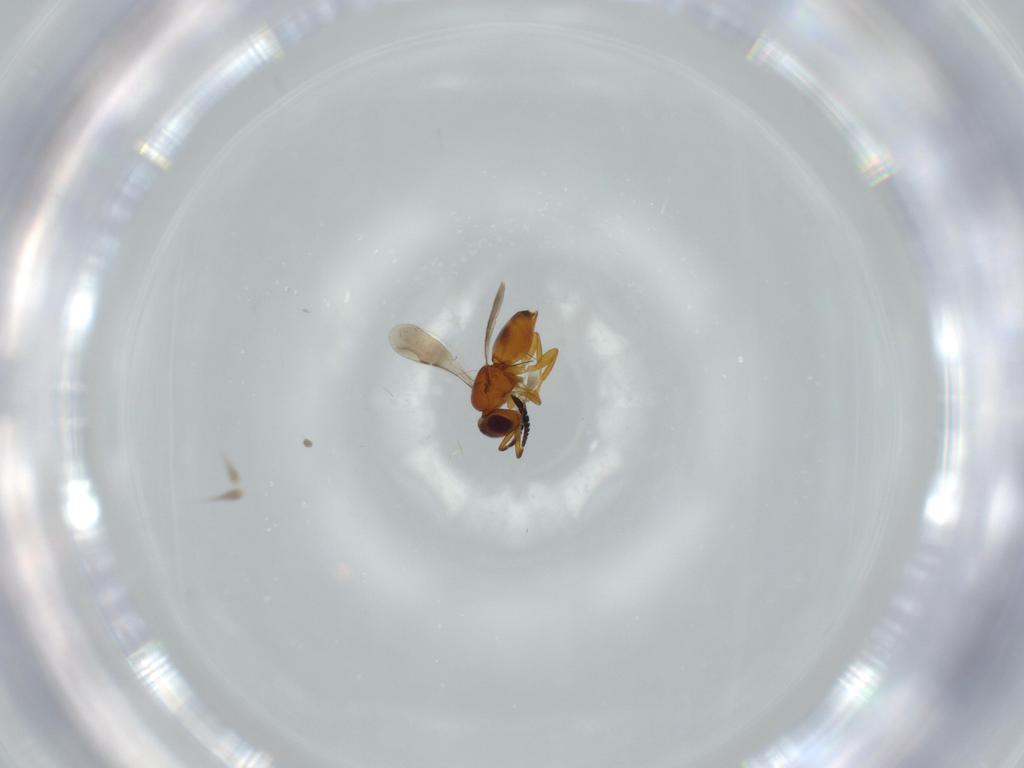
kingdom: Animalia
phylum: Arthropoda
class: Insecta
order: Hymenoptera
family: Ceraphronidae
